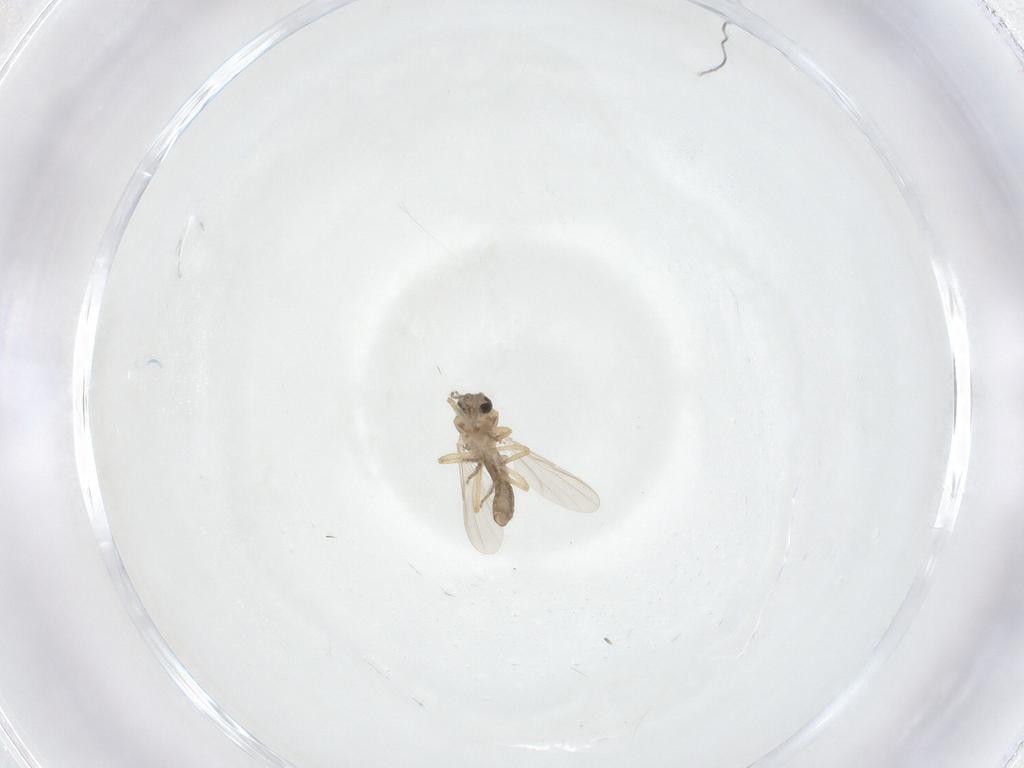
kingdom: Animalia
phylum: Arthropoda
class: Insecta
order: Diptera
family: Ceratopogonidae
